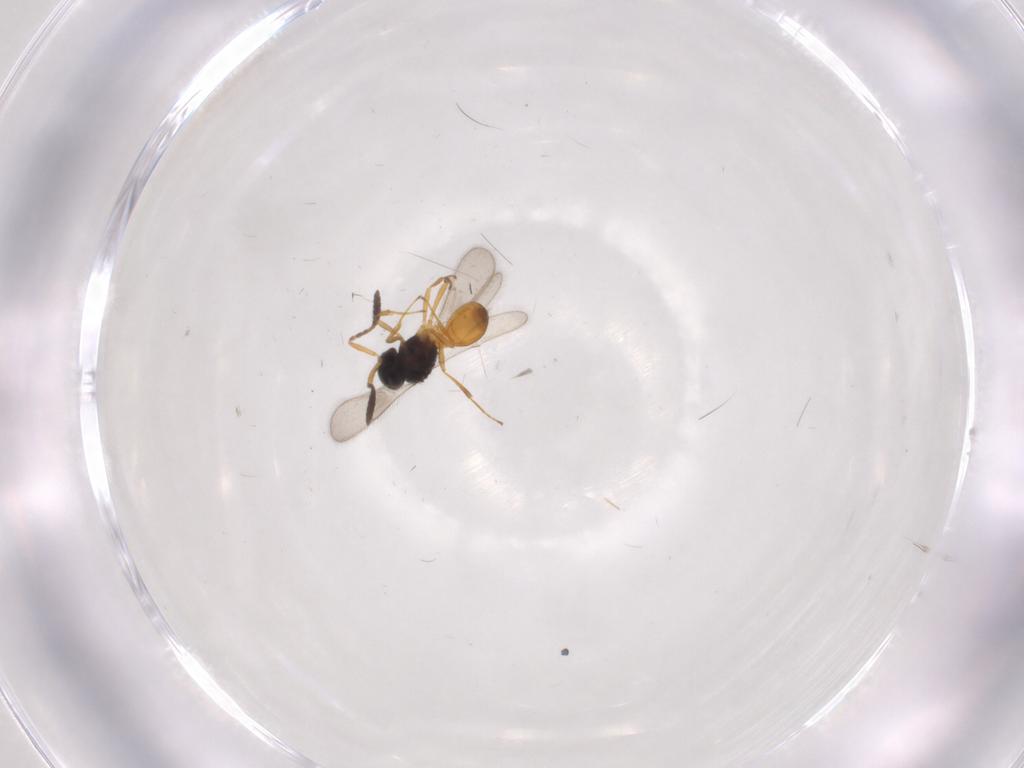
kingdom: Animalia
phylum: Arthropoda
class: Insecta
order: Hymenoptera
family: Scelionidae
